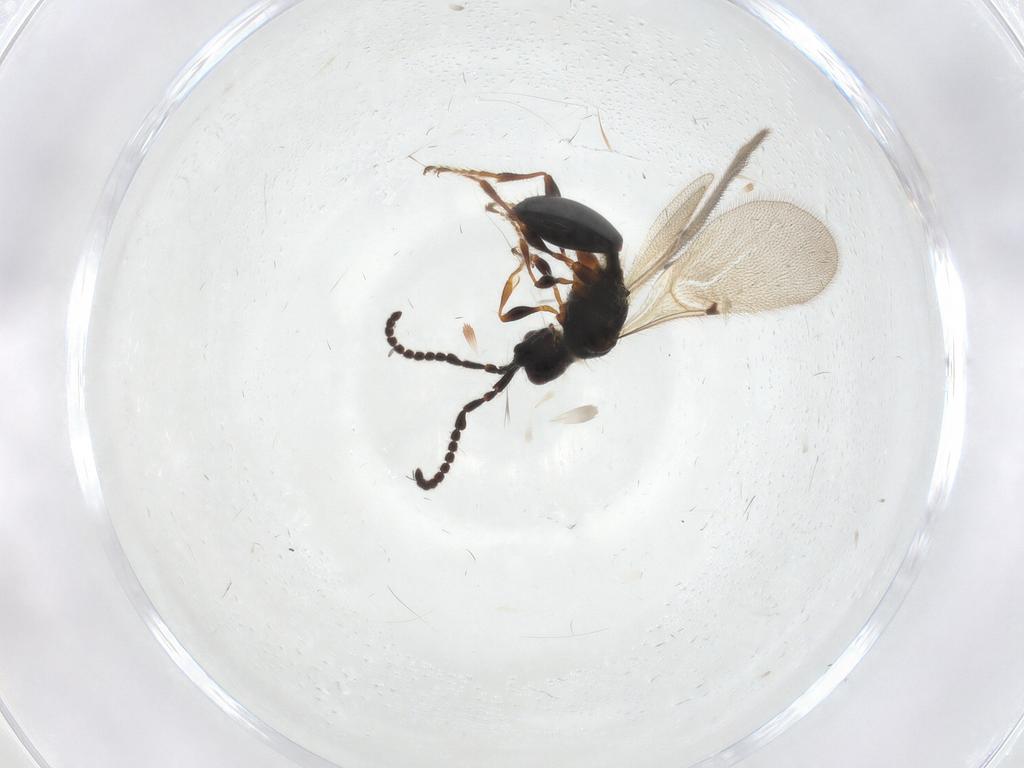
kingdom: Animalia
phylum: Arthropoda
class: Insecta
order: Hymenoptera
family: Diapriidae
